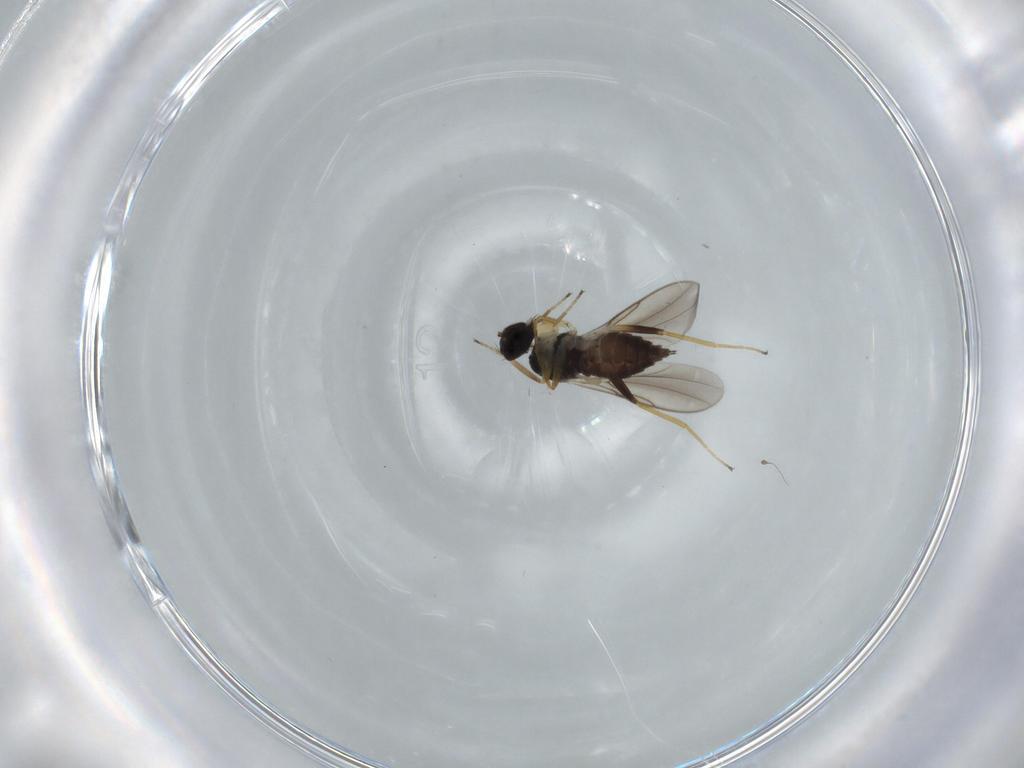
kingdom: Animalia
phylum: Arthropoda
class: Insecta
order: Diptera
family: Hybotidae
